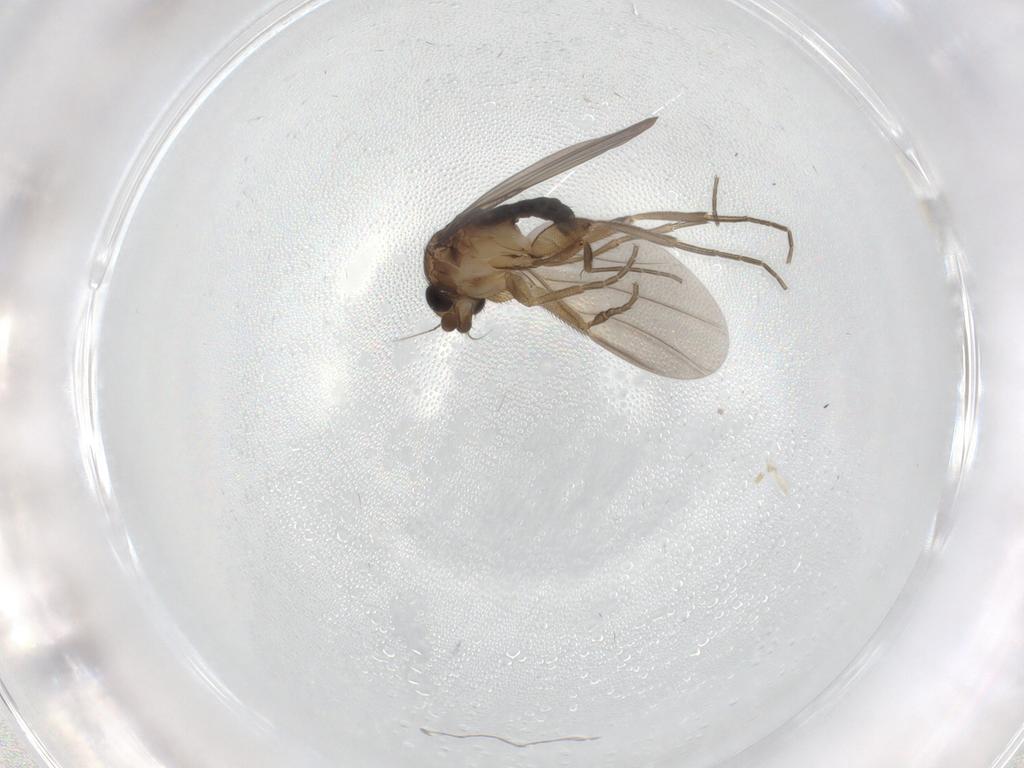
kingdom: Animalia
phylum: Arthropoda
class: Insecta
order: Diptera
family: Phoridae
